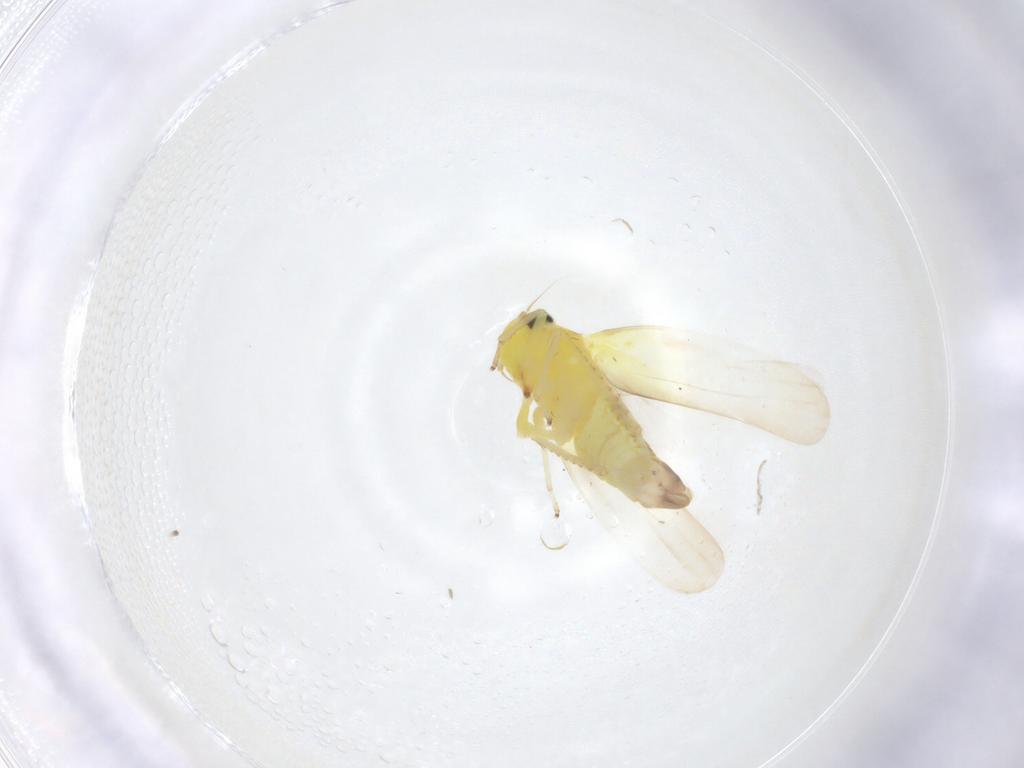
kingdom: Animalia
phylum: Arthropoda
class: Insecta
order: Hemiptera
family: Cicadellidae
